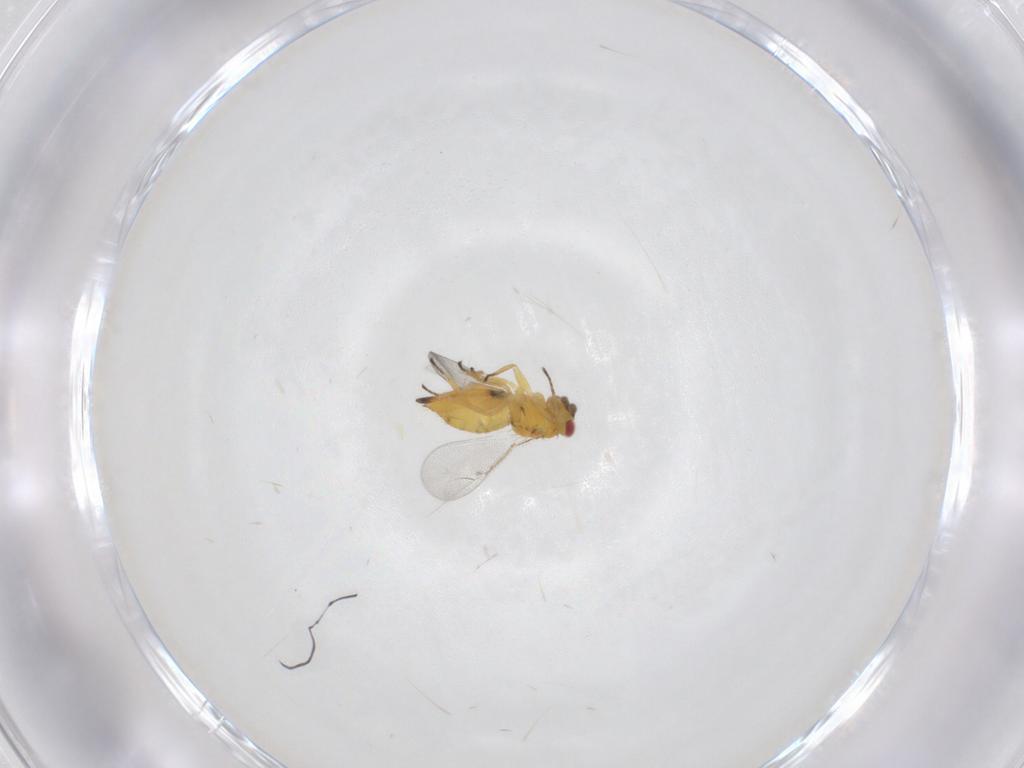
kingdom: Animalia
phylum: Arthropoda
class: Insecta
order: Hymenoptera
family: Eulophidae
